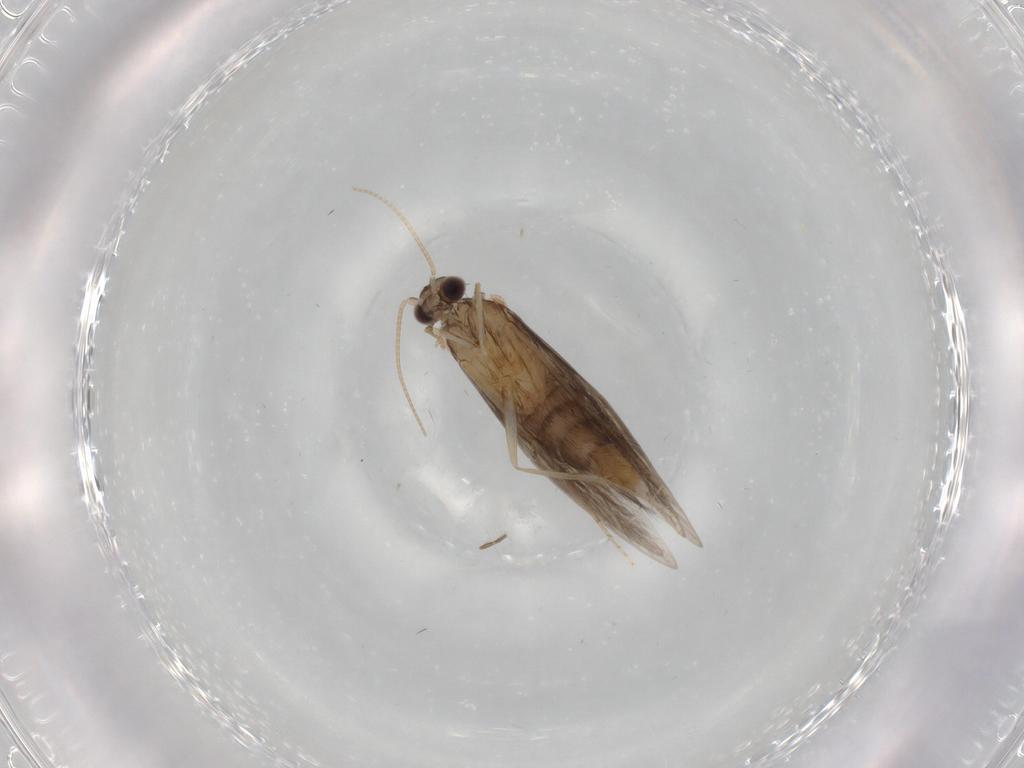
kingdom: Animalia
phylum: Arthropoda
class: Insecta
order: Trichoptera
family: Hydroptilidae
